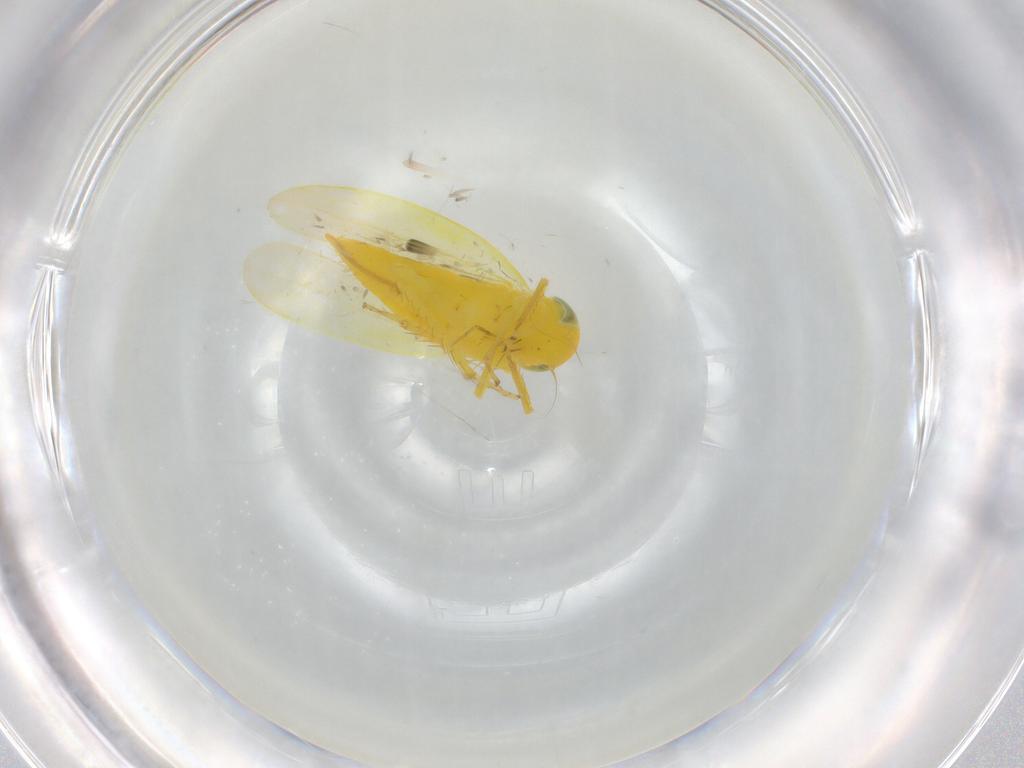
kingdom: Animalia
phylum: Arthropoda
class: Insecta
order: Hemiptera
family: Cicadellidae
